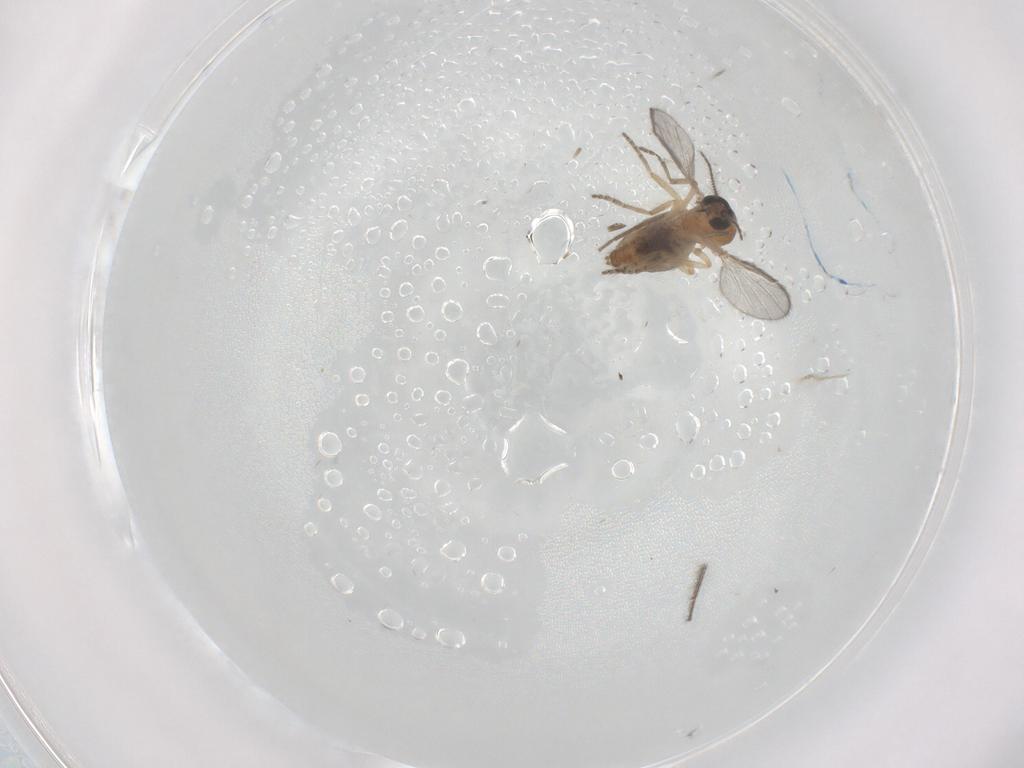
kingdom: Animalia
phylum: Arthropoda
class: Insecta
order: Diptera
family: Ceratopogonidae
